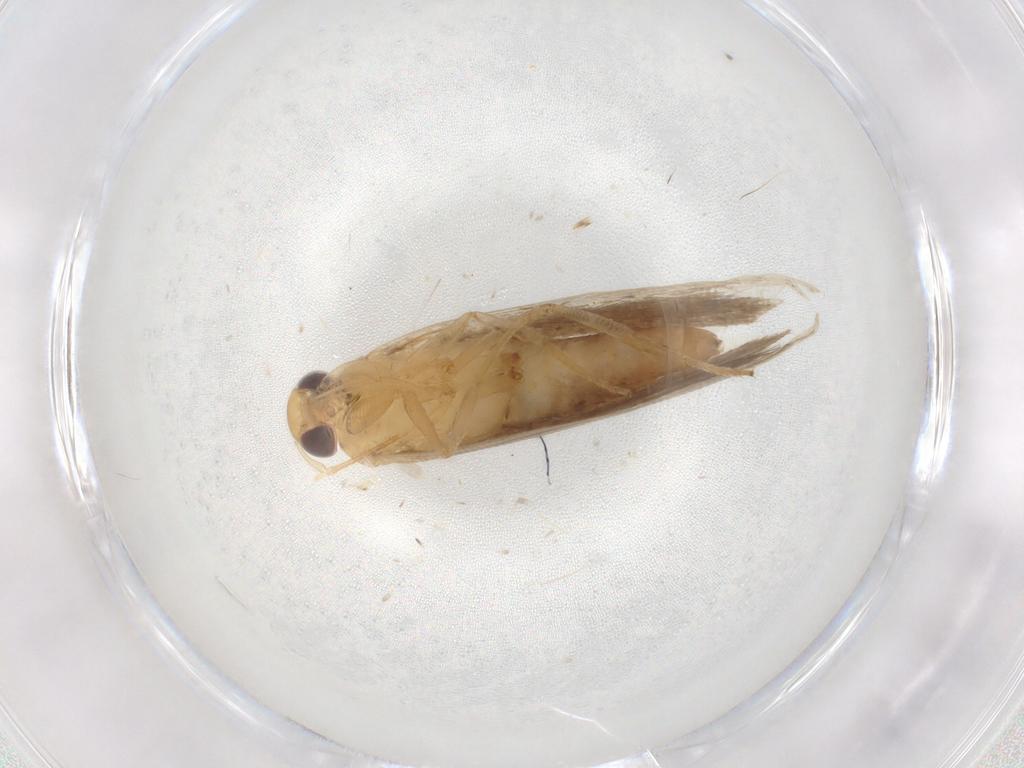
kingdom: Animalia
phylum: Arthropoda
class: Insecta
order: Lepidoptera
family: Gelechiidae
